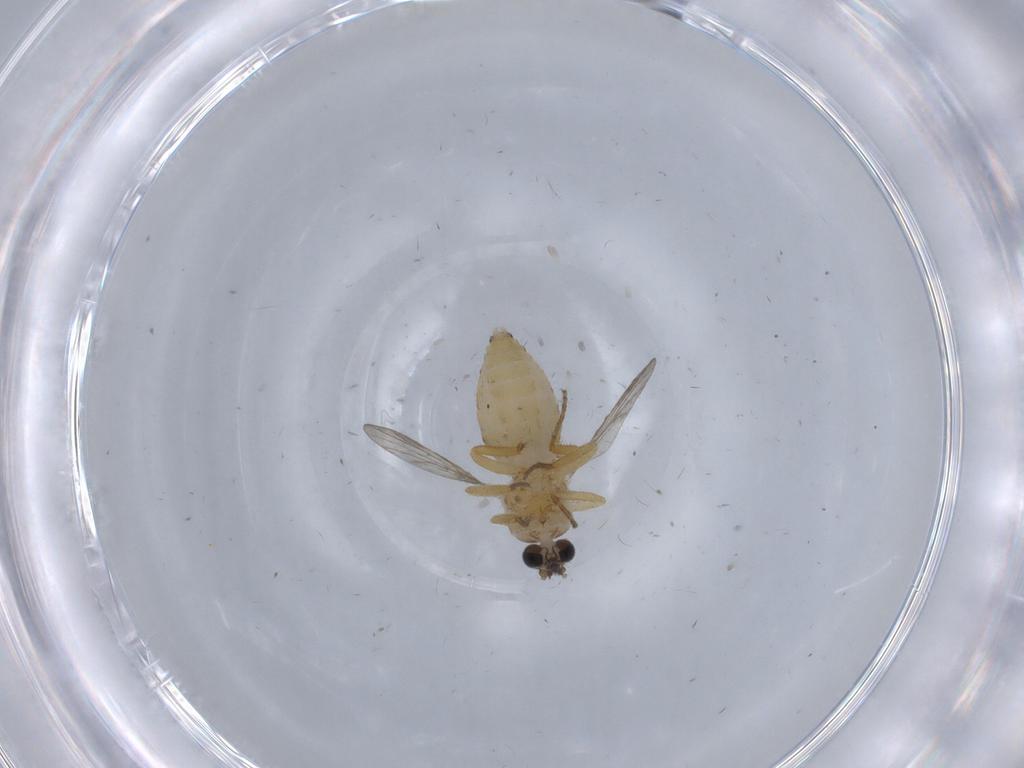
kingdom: Animalia
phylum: Arthropoda
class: Insecta
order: Diptera
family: Ceratopogonidae
